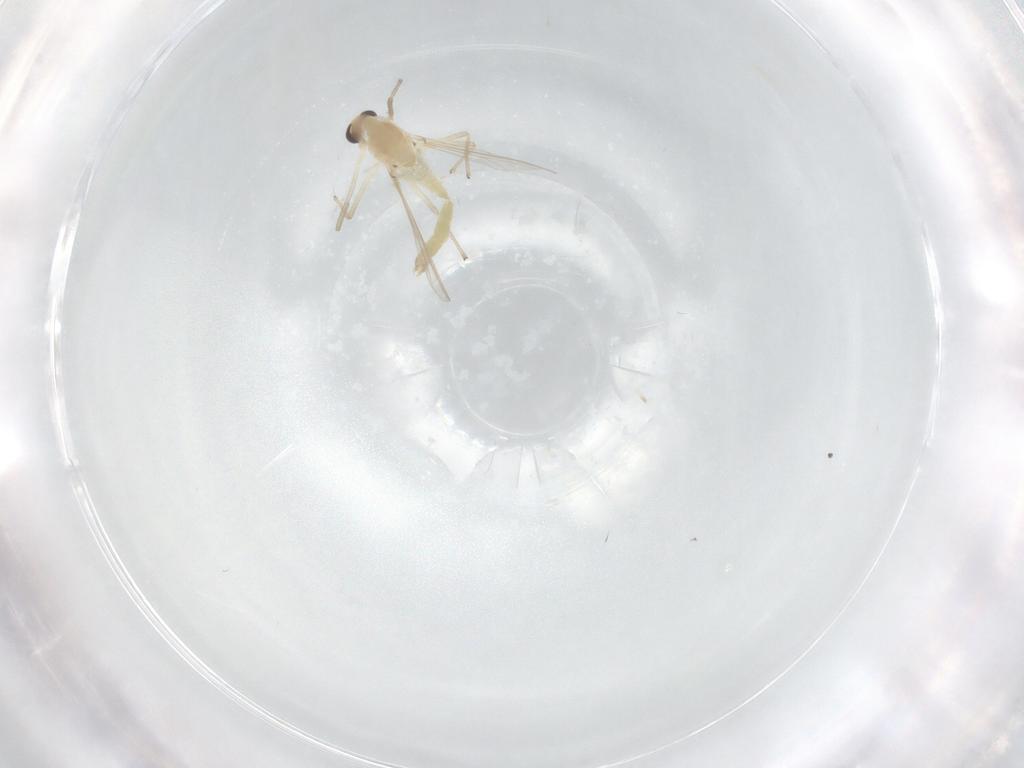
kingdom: Animalia
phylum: Arthropoda
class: Insecta
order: Diptera
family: Chironomidae
